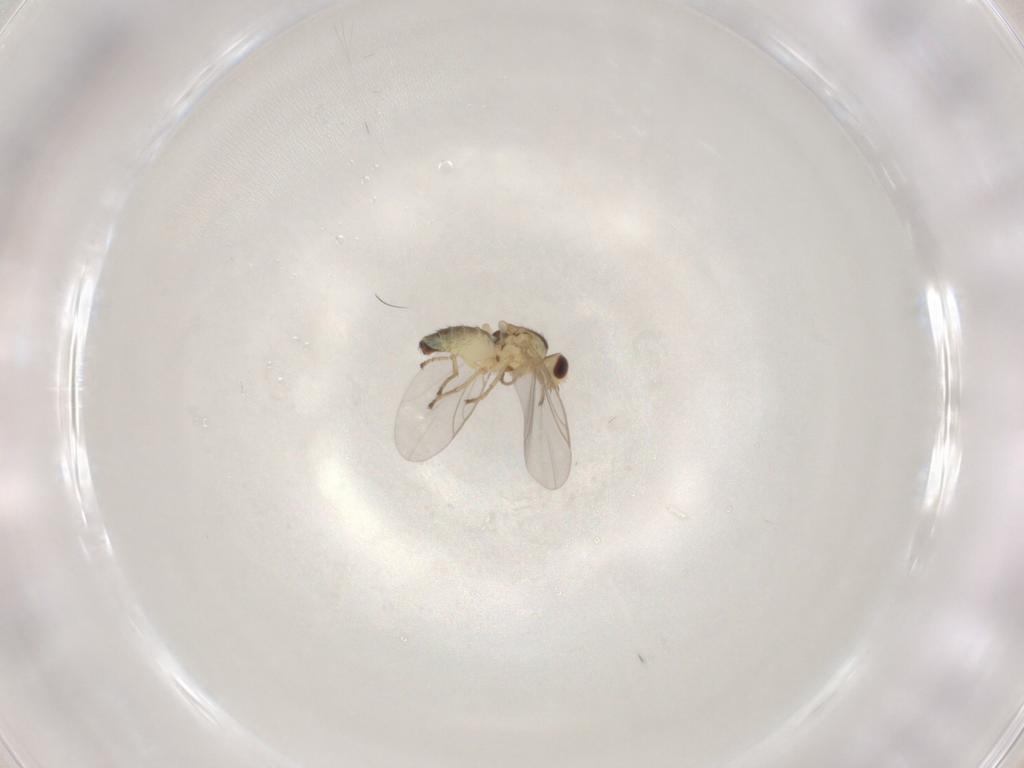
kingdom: Animalia
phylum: Arthropoda
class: Insecta
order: Diptera
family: Agromyzidae
